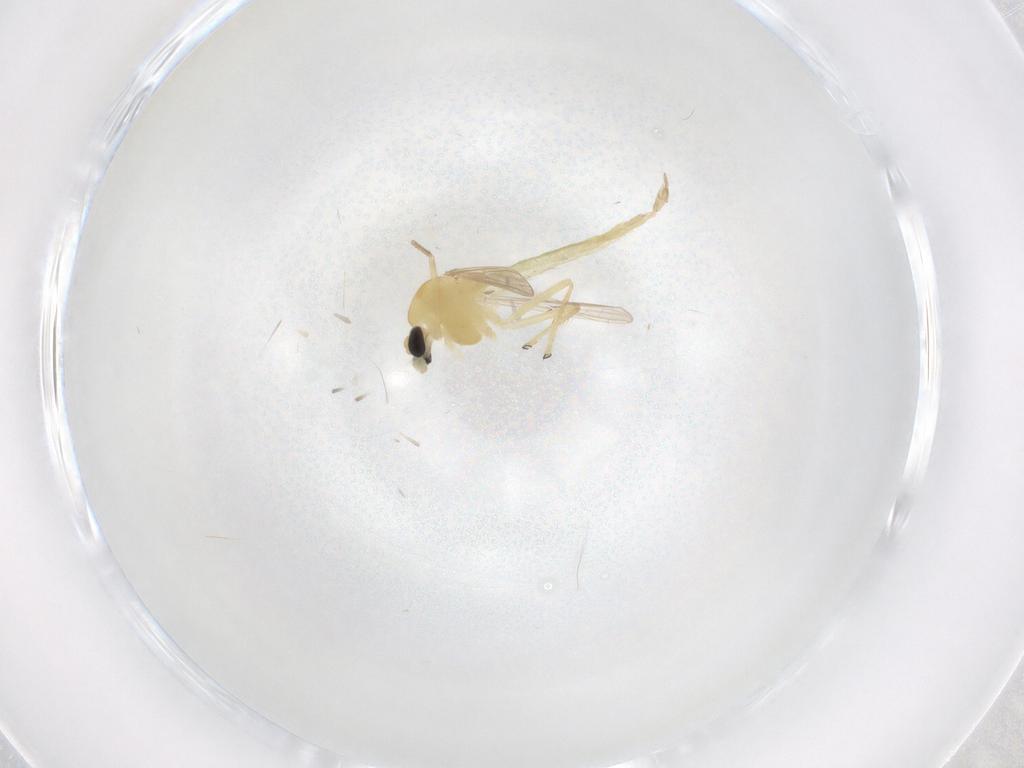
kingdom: Animalia
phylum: Arthropoda
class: Insecta
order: Diptera
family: Chironomidae
